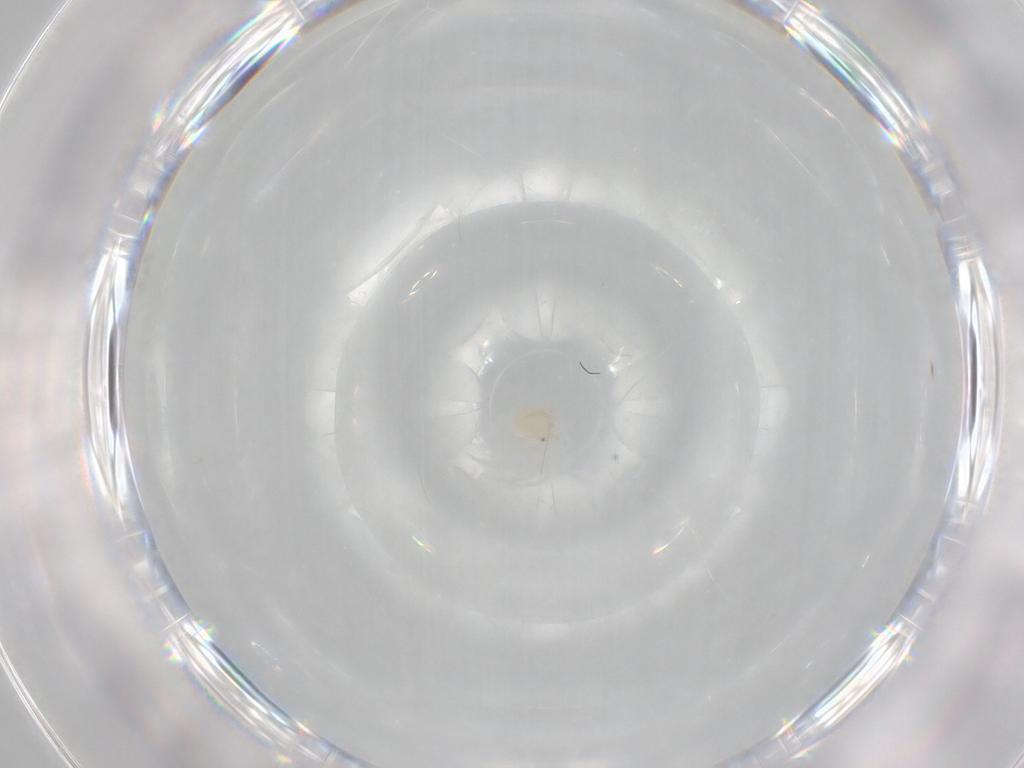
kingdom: Animalia
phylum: Arthropoda
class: Arachnida
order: Trombidiformes
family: Lebertiidae
